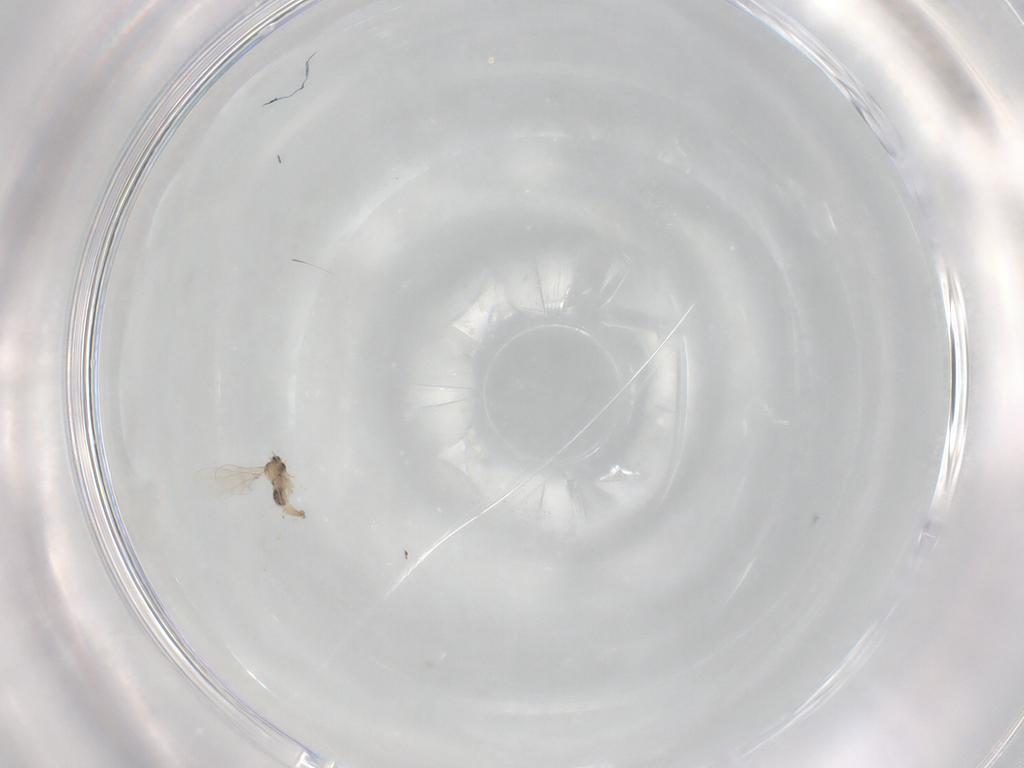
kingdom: Animalia
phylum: Arthropoda
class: Insecta
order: Diptera
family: Cecidomyiidae
